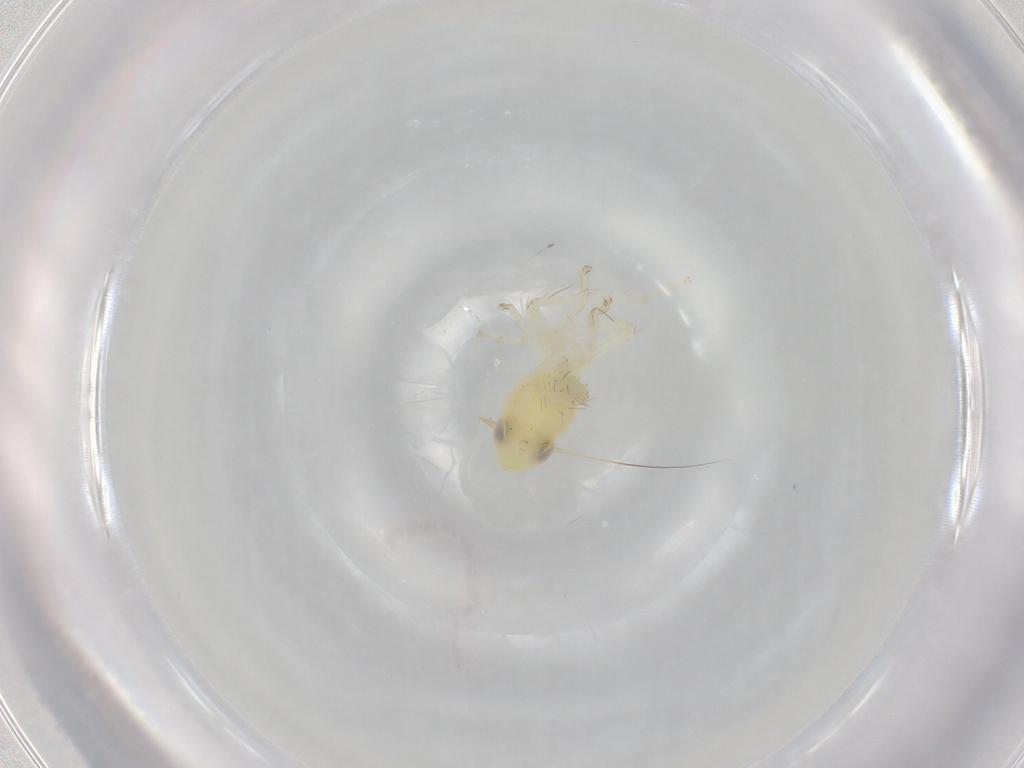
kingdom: Animalia
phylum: Arthropoda
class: Insecta
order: Hemiptera
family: Cicadellidae
